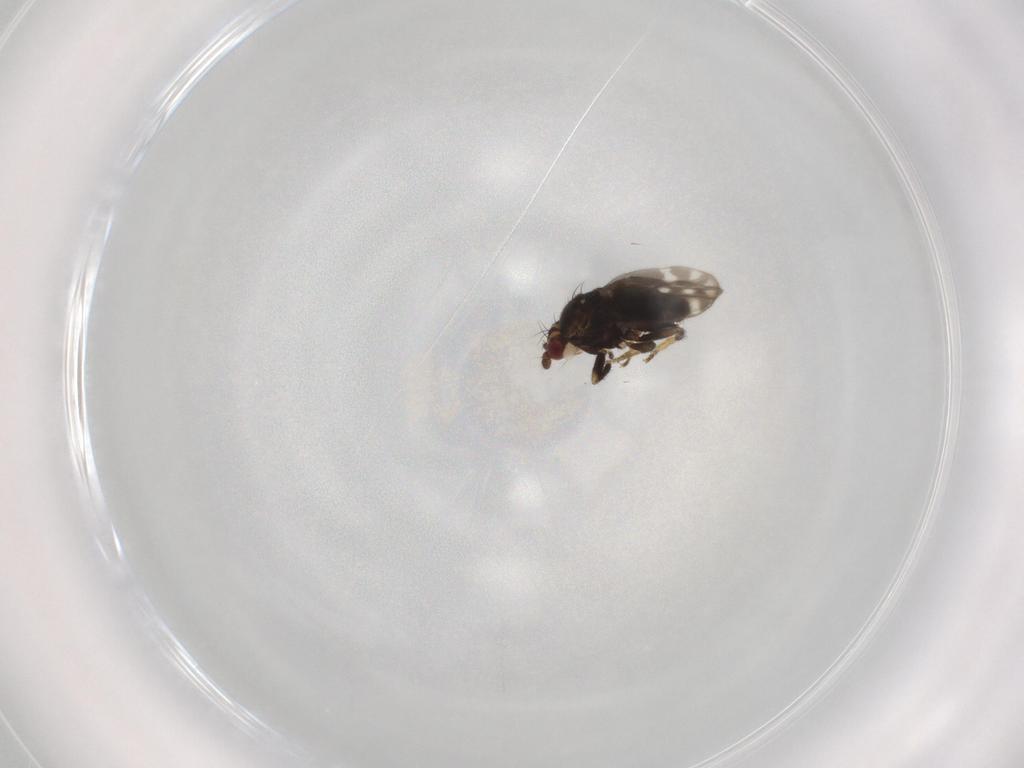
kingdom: Animalia
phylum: Arthropoda
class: Insecta
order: Diptera
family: Sphaeroceridae
